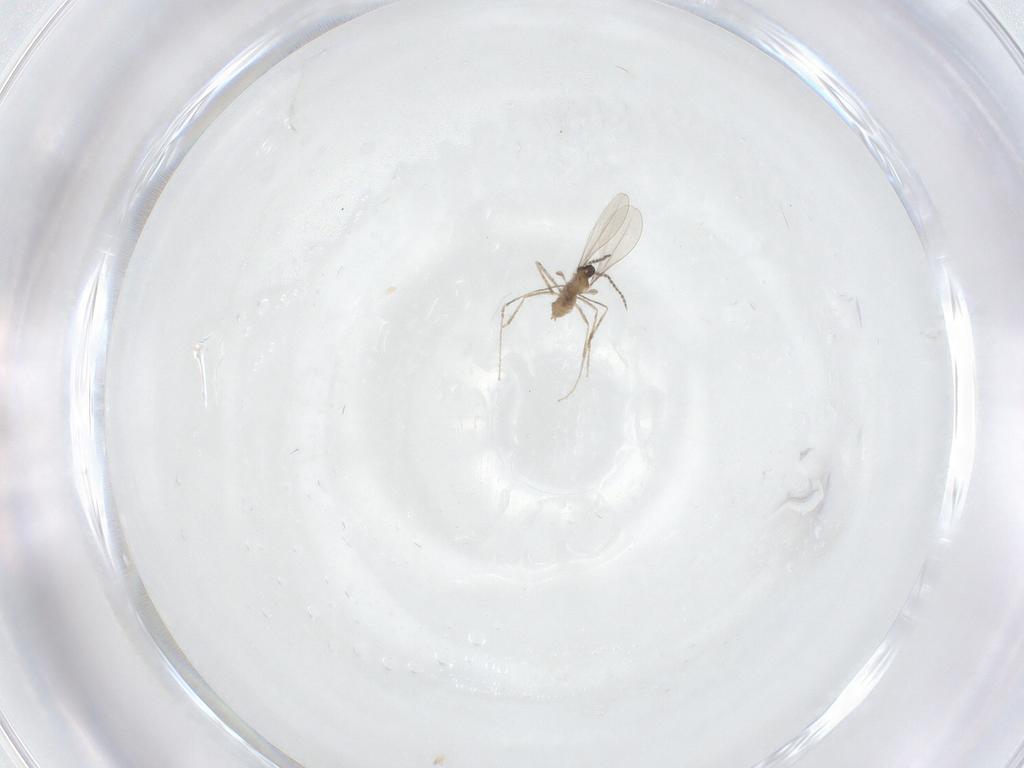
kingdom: Animalia
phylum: Arthropoda
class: Insecta
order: Diptera
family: Cecidomyiidae
